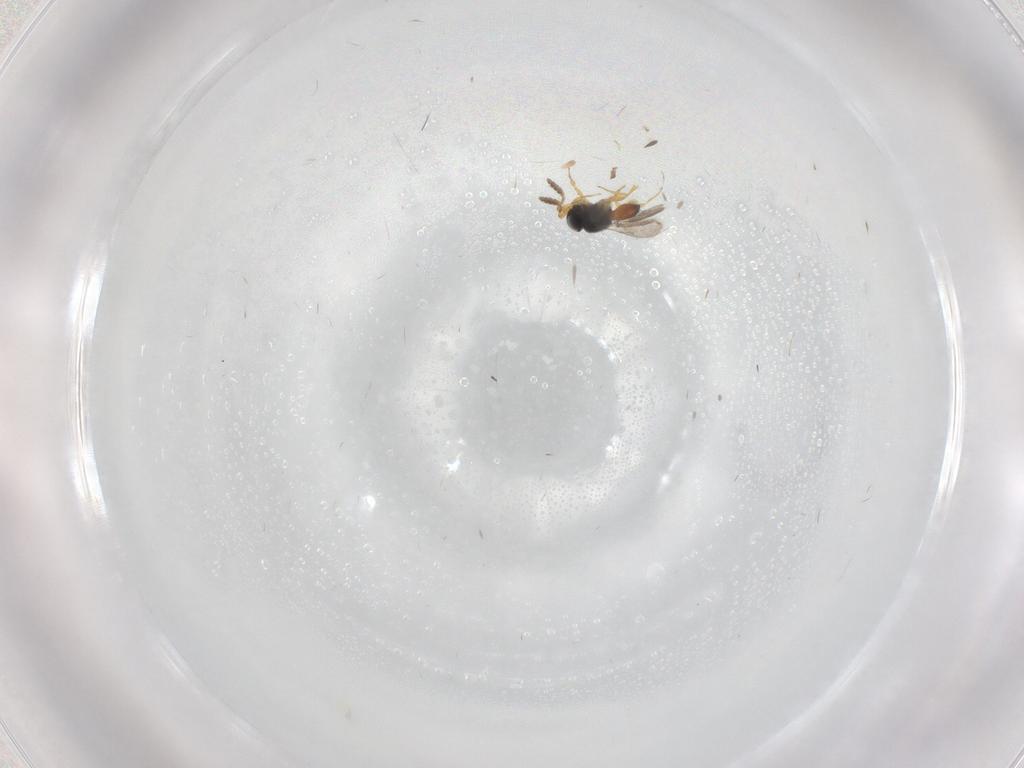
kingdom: Animalia
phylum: Arthropoda
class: Insecta
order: Hymenoptera
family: Scelionidae
